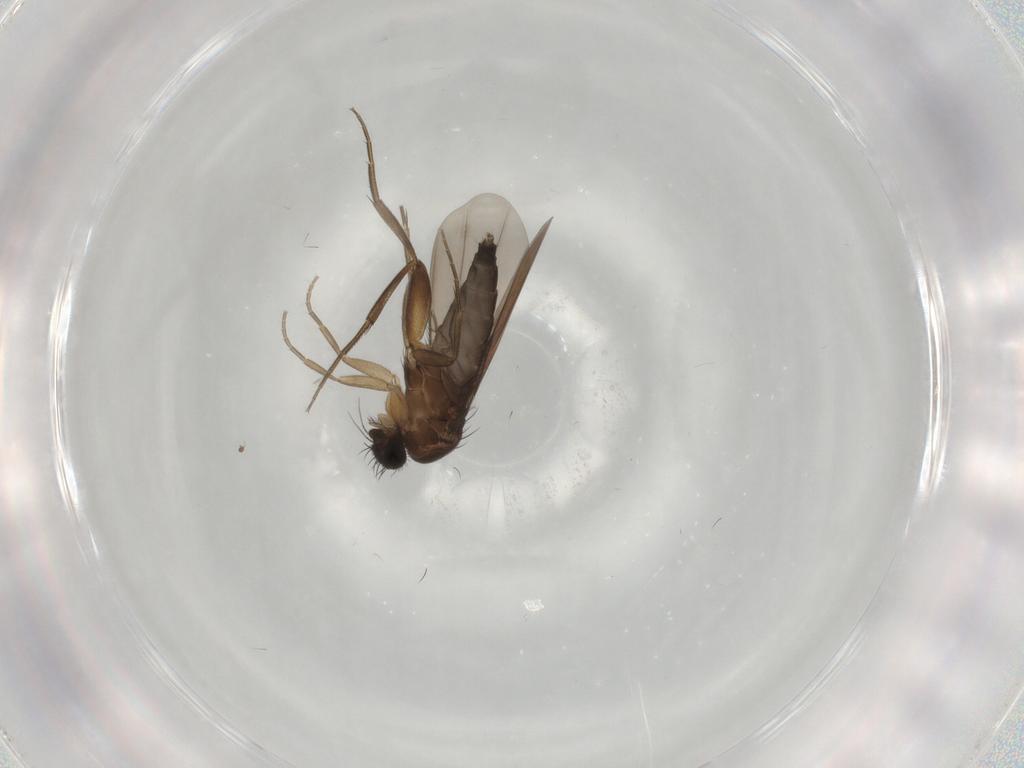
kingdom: Animalia
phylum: Arthropoda
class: Insecta
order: Diptera
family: Phoridae
